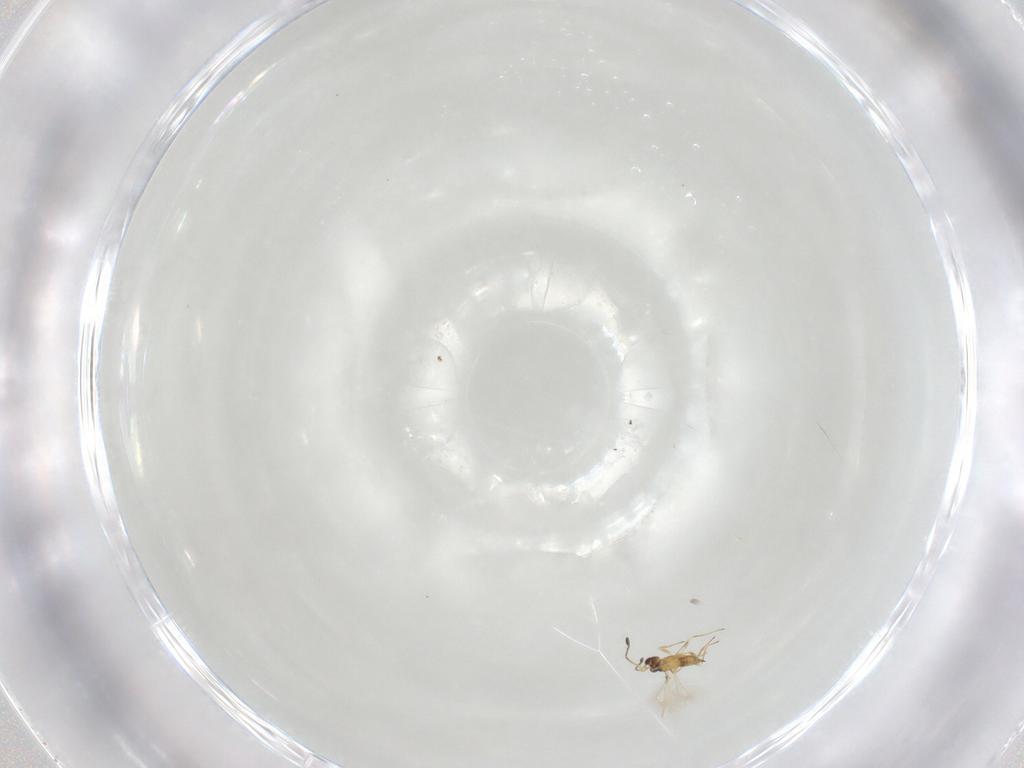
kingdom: Animalia
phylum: Arthropoda
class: Insecta
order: Hymenoptera
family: Mymaridae
